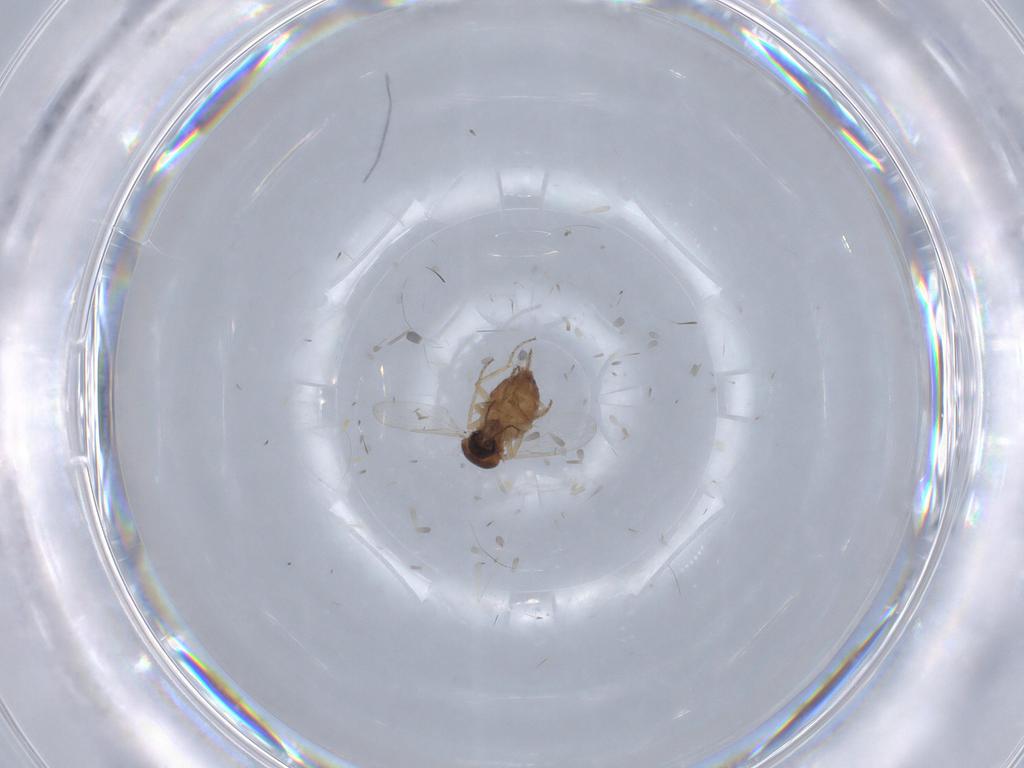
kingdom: Animalia
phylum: Arthropoda
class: Insecta
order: Diptera
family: Ceratopogonidae
